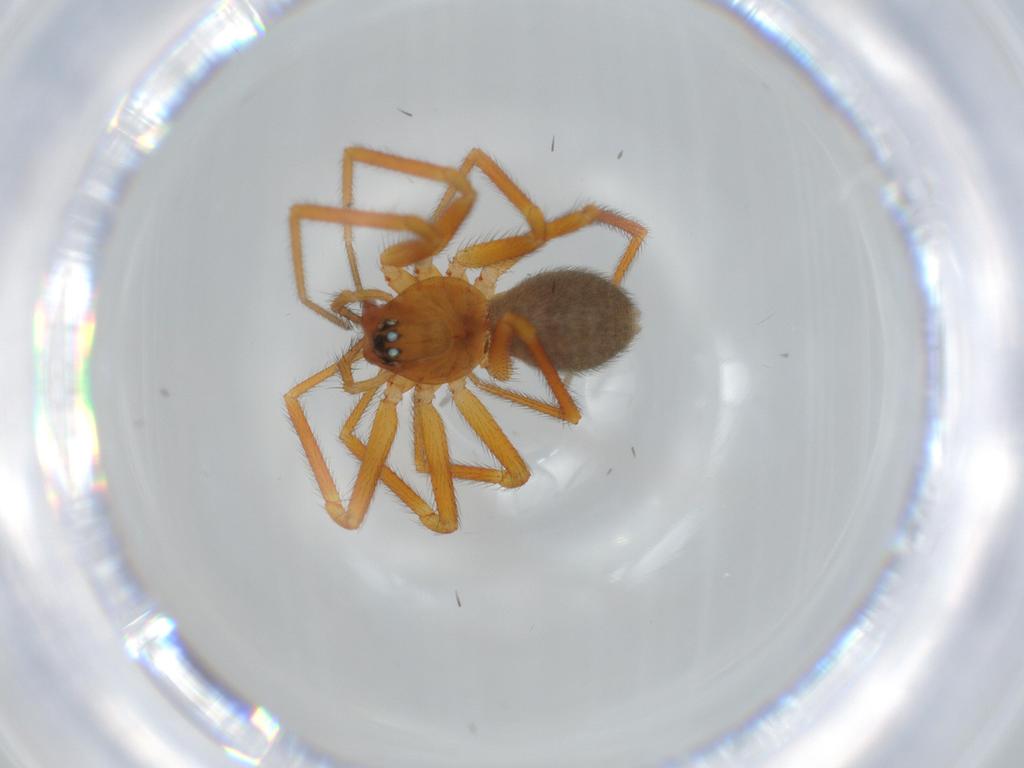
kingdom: Animalia
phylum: Arthropoda
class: Arachnida
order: Araneae
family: Linyphiidae
